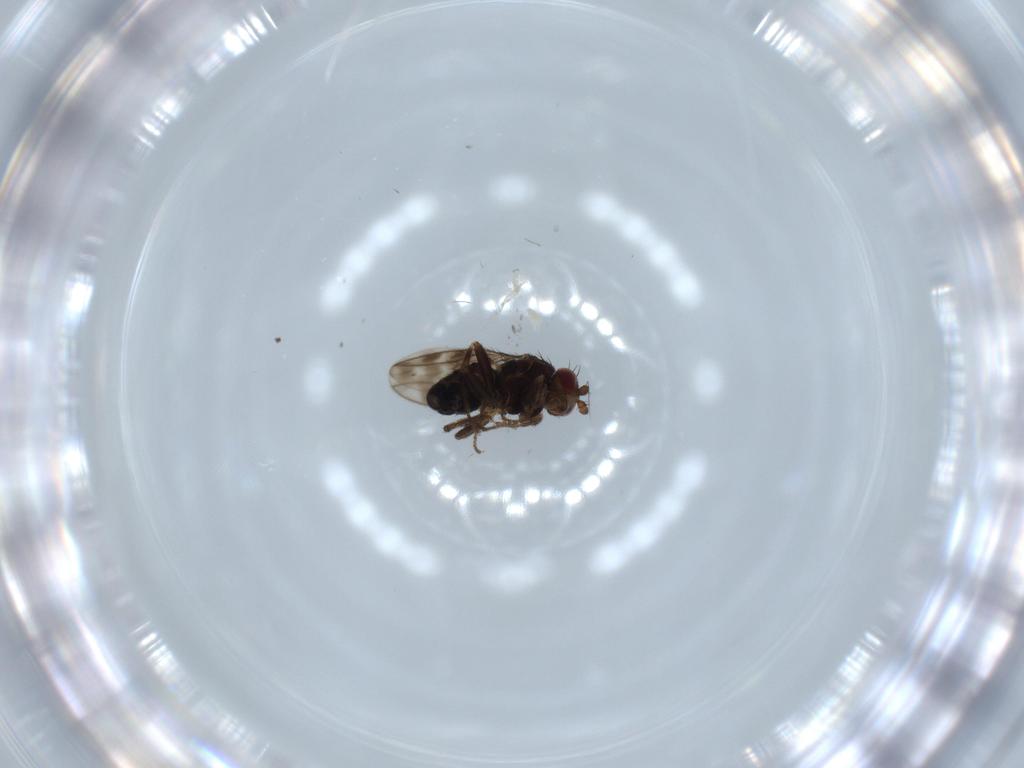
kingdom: Animalia
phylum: Arthropoda
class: Insecta
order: Diptera
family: Sphaeroceridae
